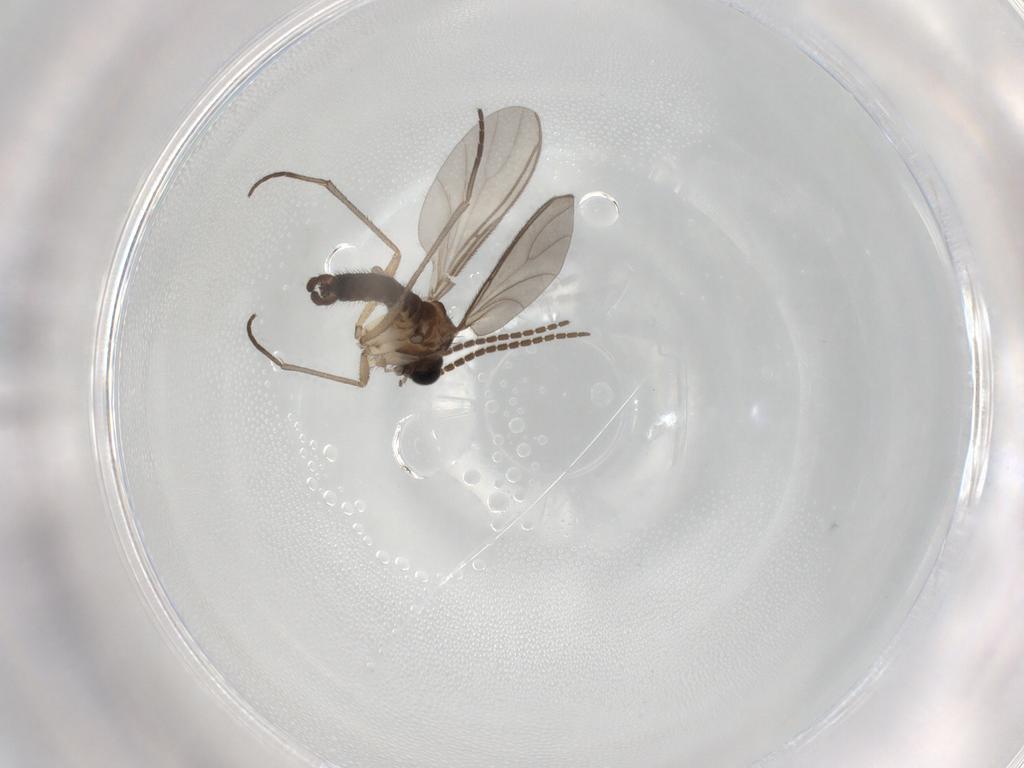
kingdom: Animalia
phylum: Arthropoda
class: Insecta
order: Diptera
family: Sciaridae
